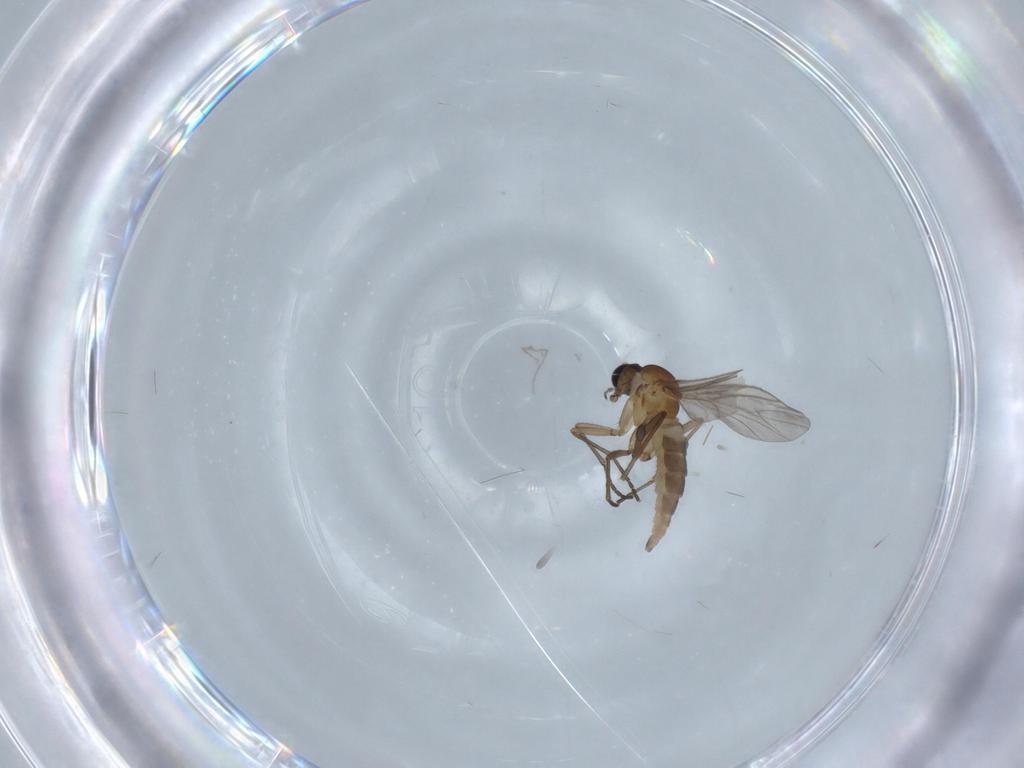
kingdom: Animalia
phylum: Arthropoda
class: Insecta
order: Diptera
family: Sciaridae
